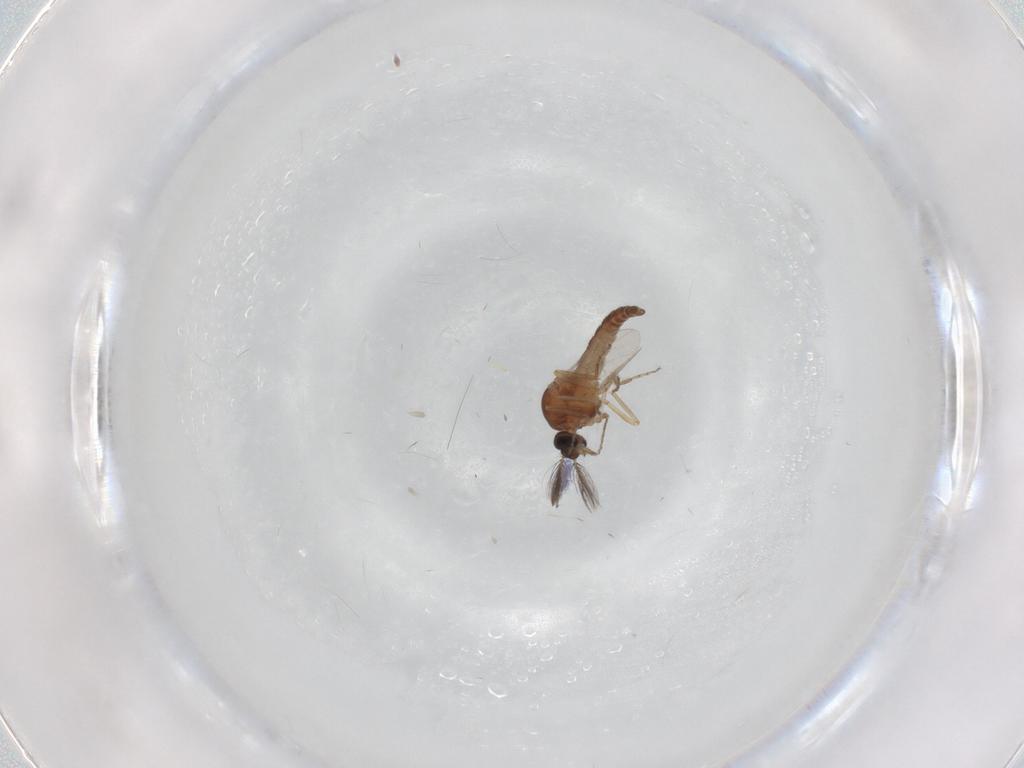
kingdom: Animalia
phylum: Arthropoda
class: Insecta
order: Diptera
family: Ceratopogonidae
